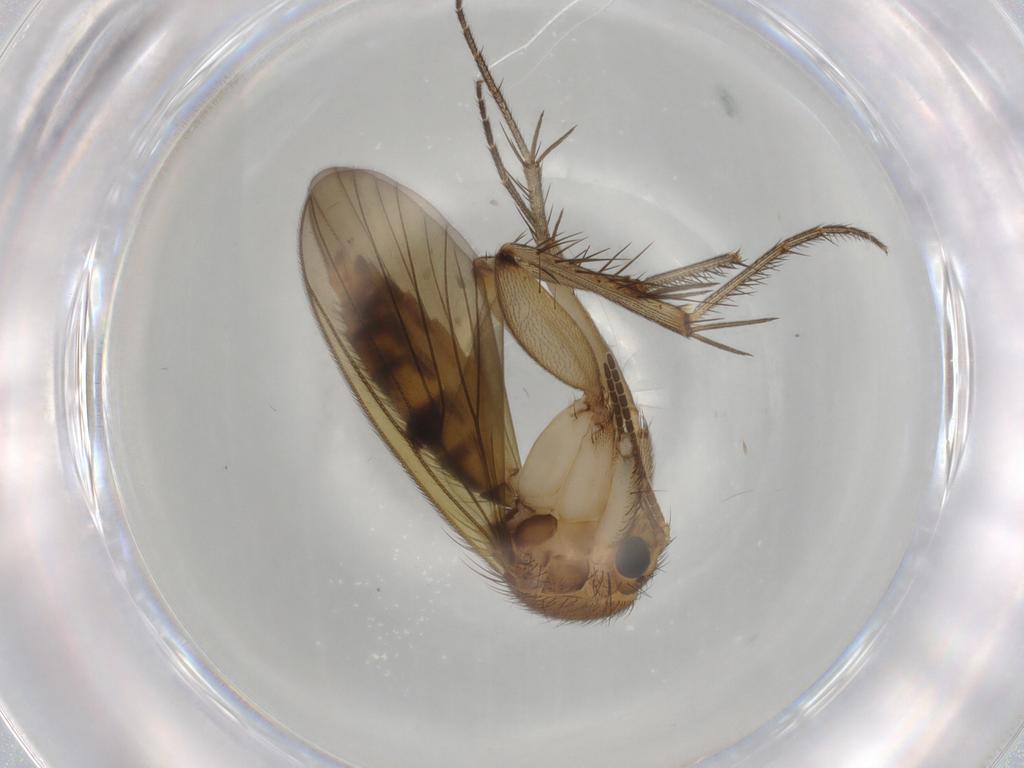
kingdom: Animalia
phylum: Arthropoda
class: Insecta
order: Diptera
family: Mycetophilidae
